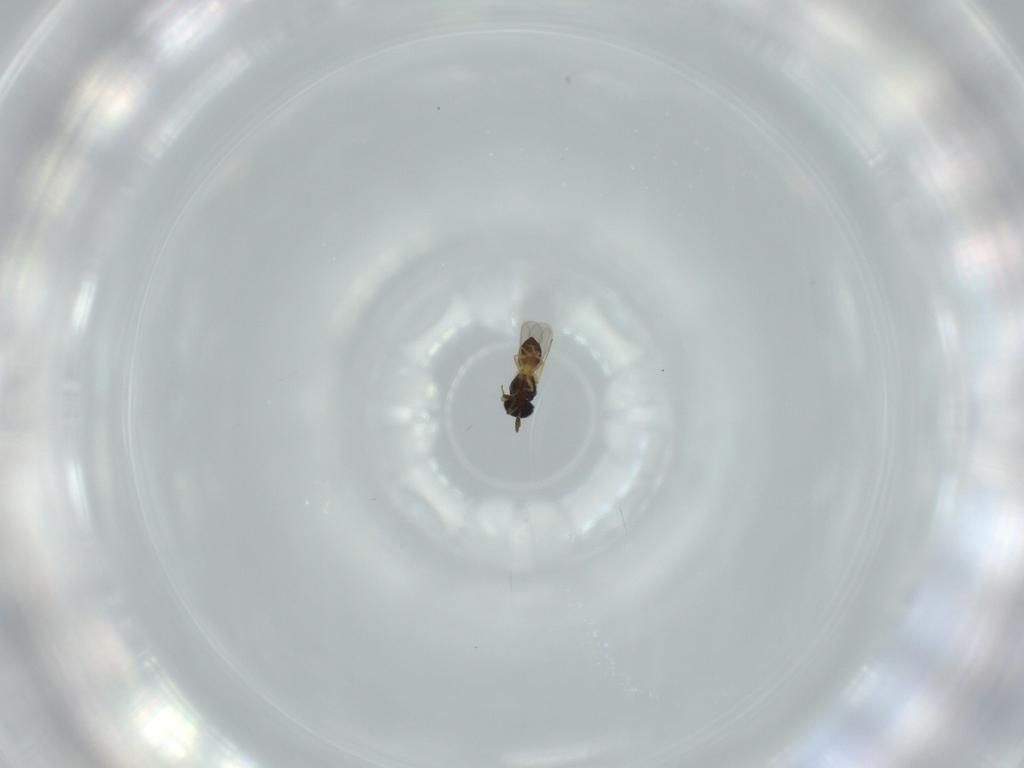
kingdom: Animalia
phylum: Arthropoda
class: Insecta
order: Hymenoptera
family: Scelionidae
